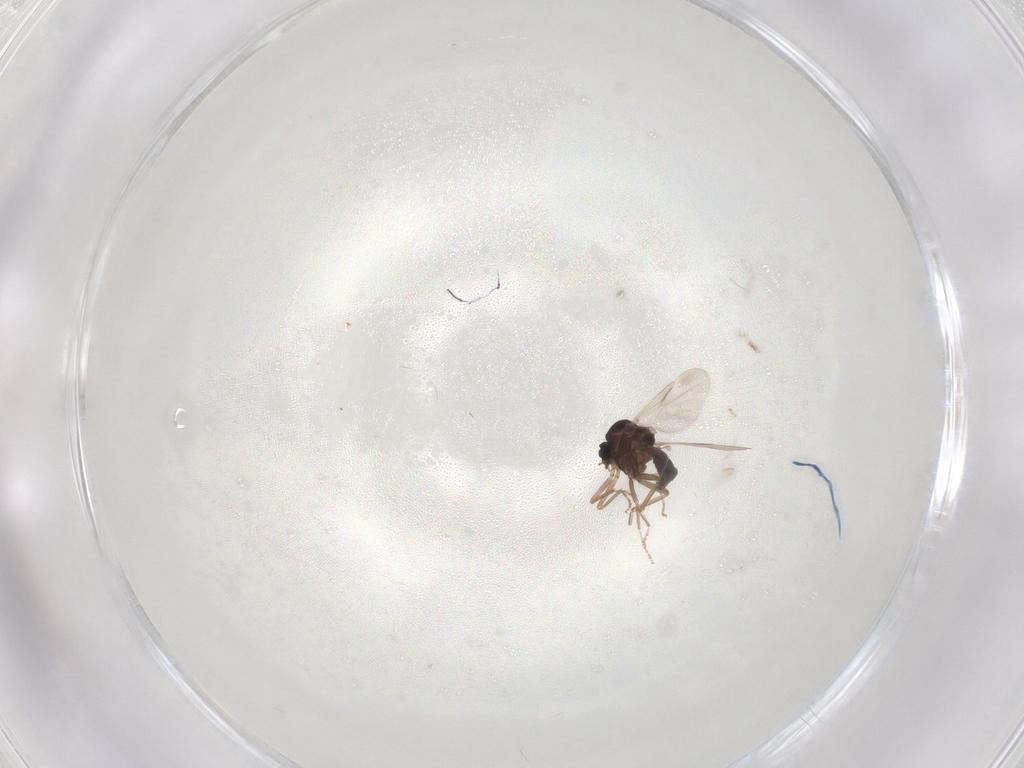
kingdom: Animalia
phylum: Arthropoda
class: Insecta
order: Diptera
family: Ceratopogonidae
